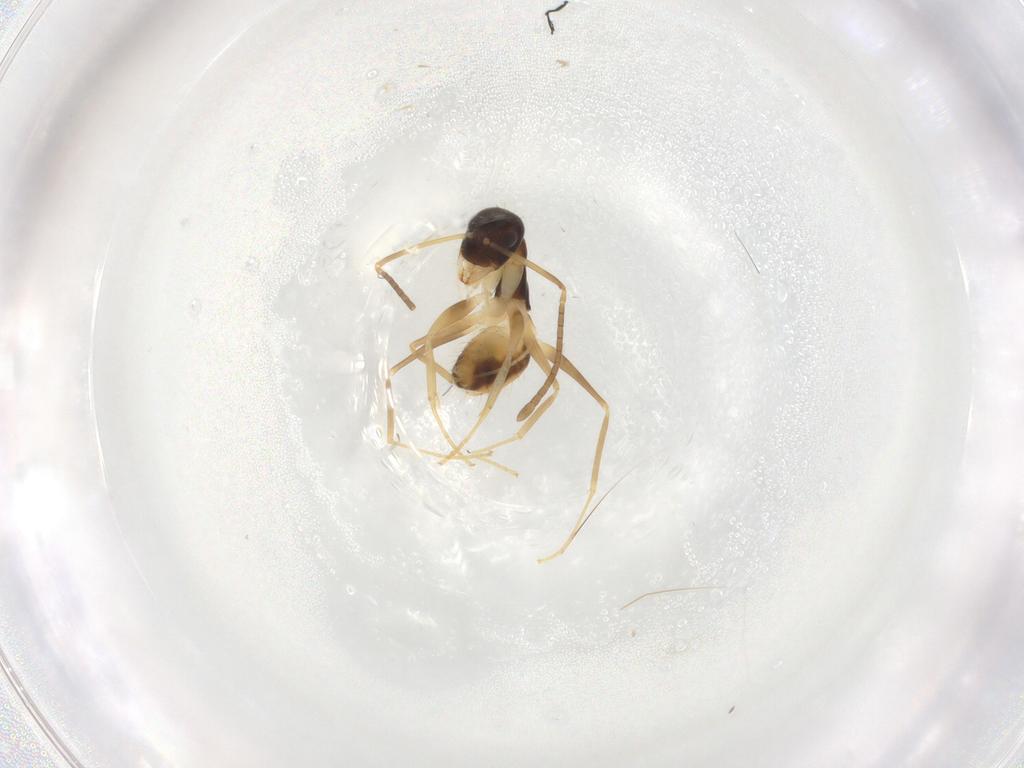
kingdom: Animalia
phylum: Arthropoda
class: Insecta
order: Hymenoptera
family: Formicidae
